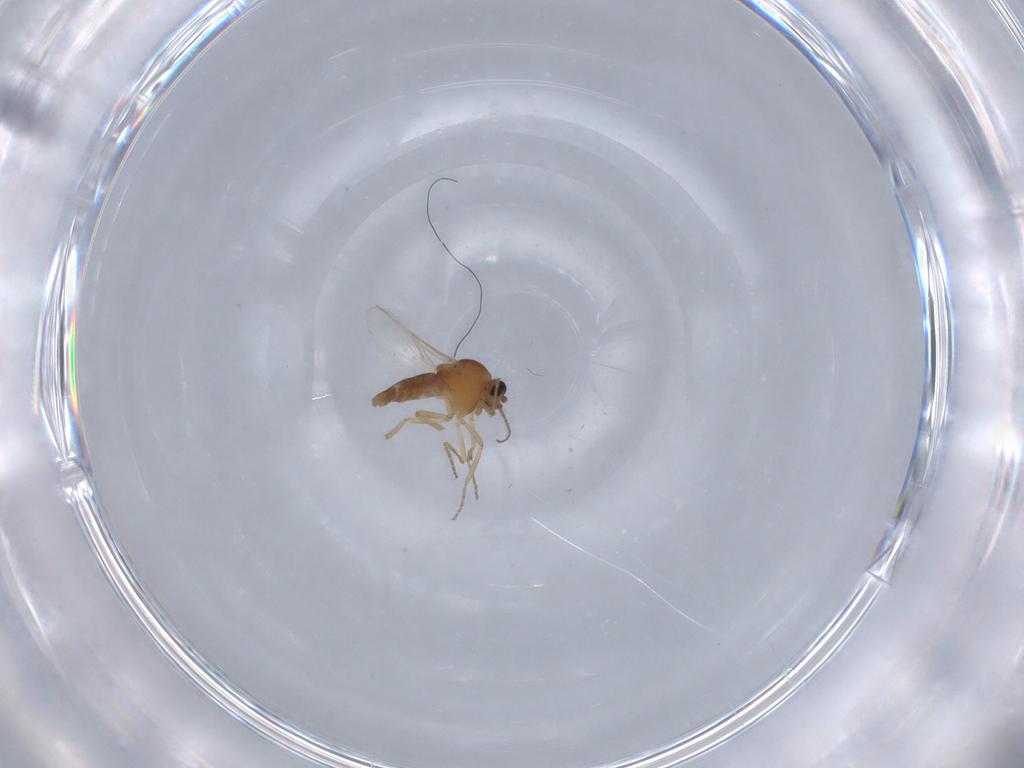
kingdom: Animalia
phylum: Arthropoda
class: Insecta
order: Diptera
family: Ceratopogonidae
